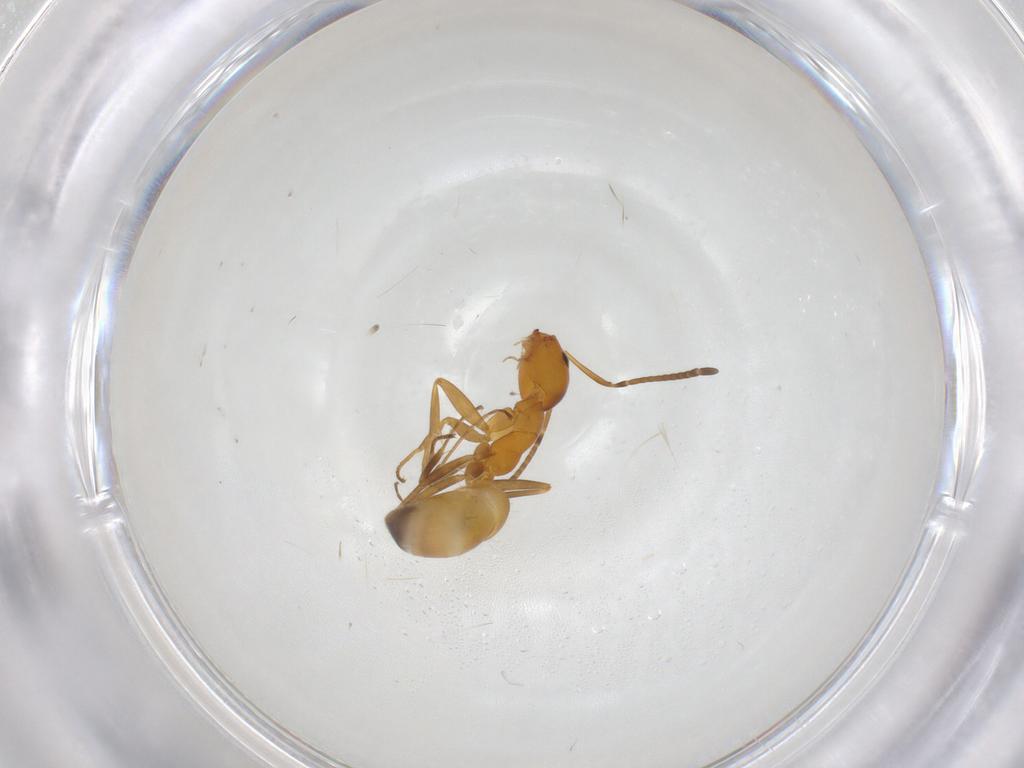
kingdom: Animalia
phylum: Arthropoda
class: Insecta
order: Hymenoptera
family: Formicidae
